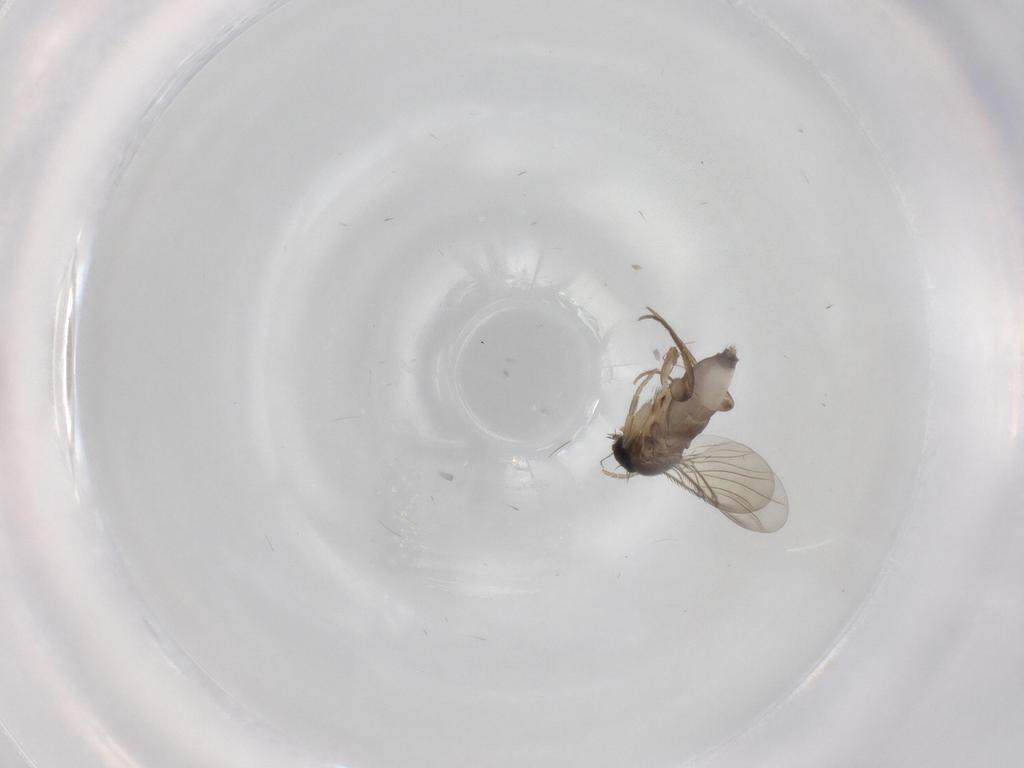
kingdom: Animalia
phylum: Arthropoda
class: Insecta
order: Diptera
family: Phoridae
